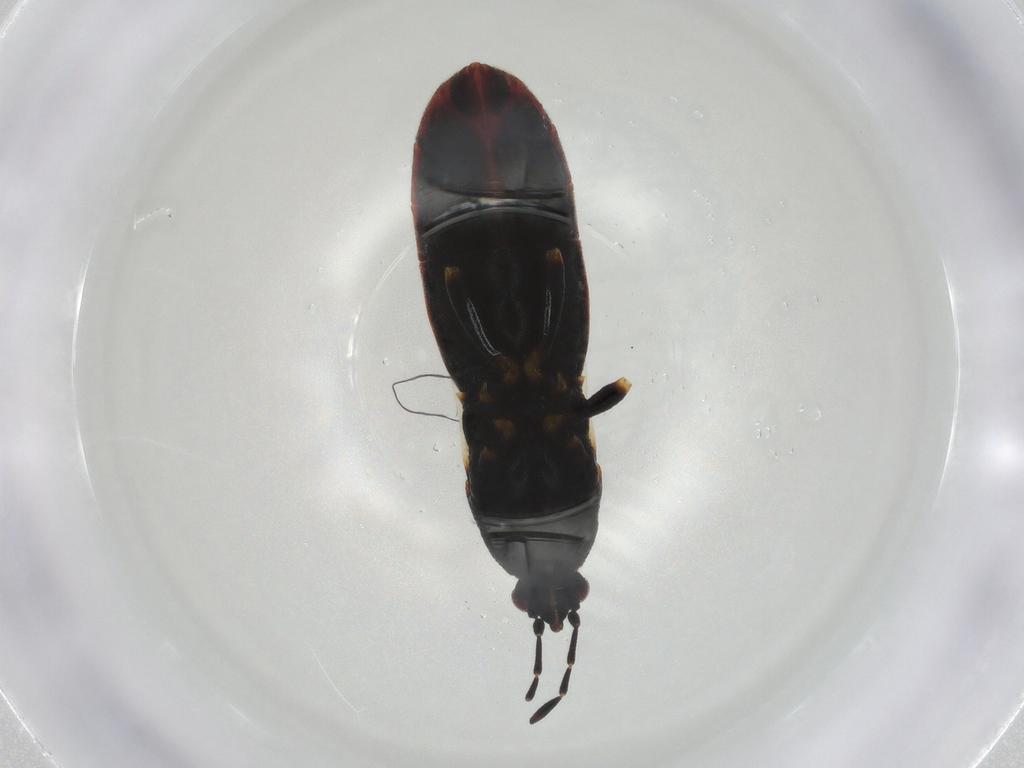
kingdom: Animalia
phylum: Arthropoda
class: Insecta
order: Hemiptera
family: Blissidae
